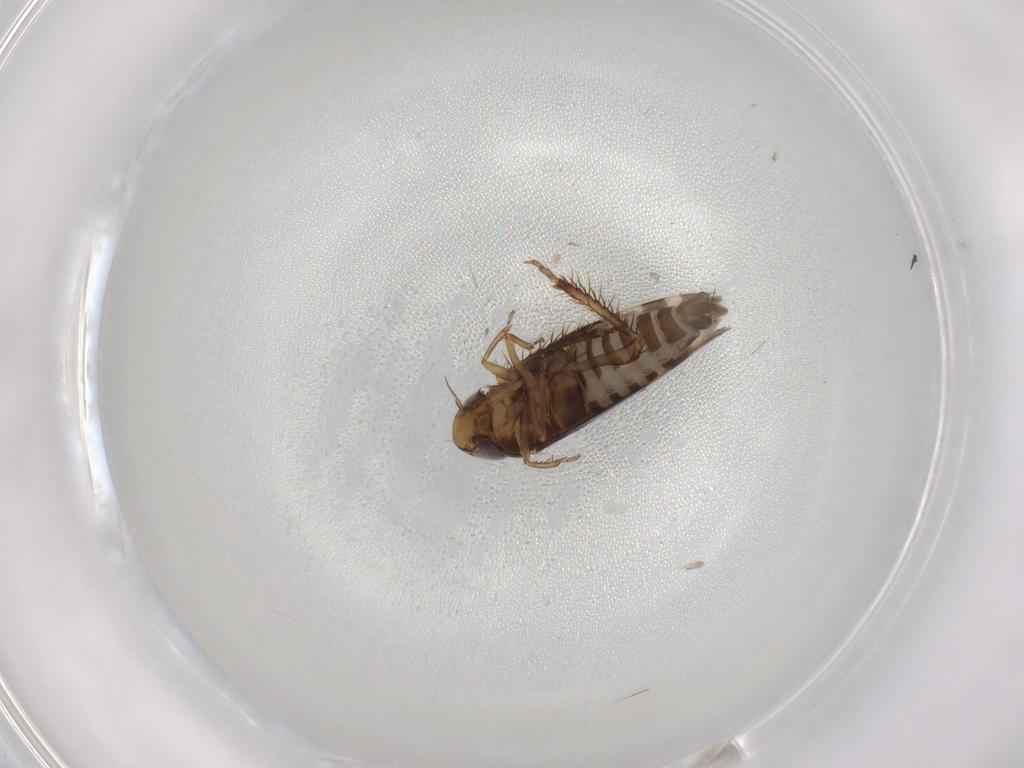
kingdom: Animalia
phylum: Arthropoda
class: Insecta
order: Hemiptera
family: Cicadellidae
